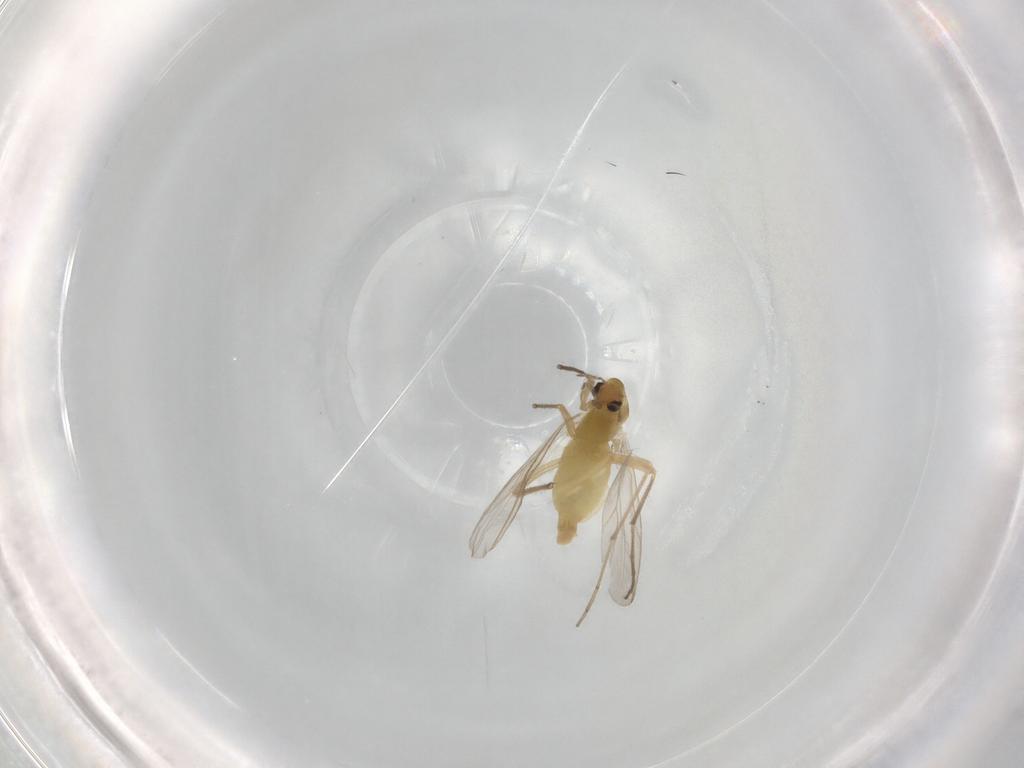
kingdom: Animalia
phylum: Arthropoda
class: Insecta
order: Diptera
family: Chironomidae
